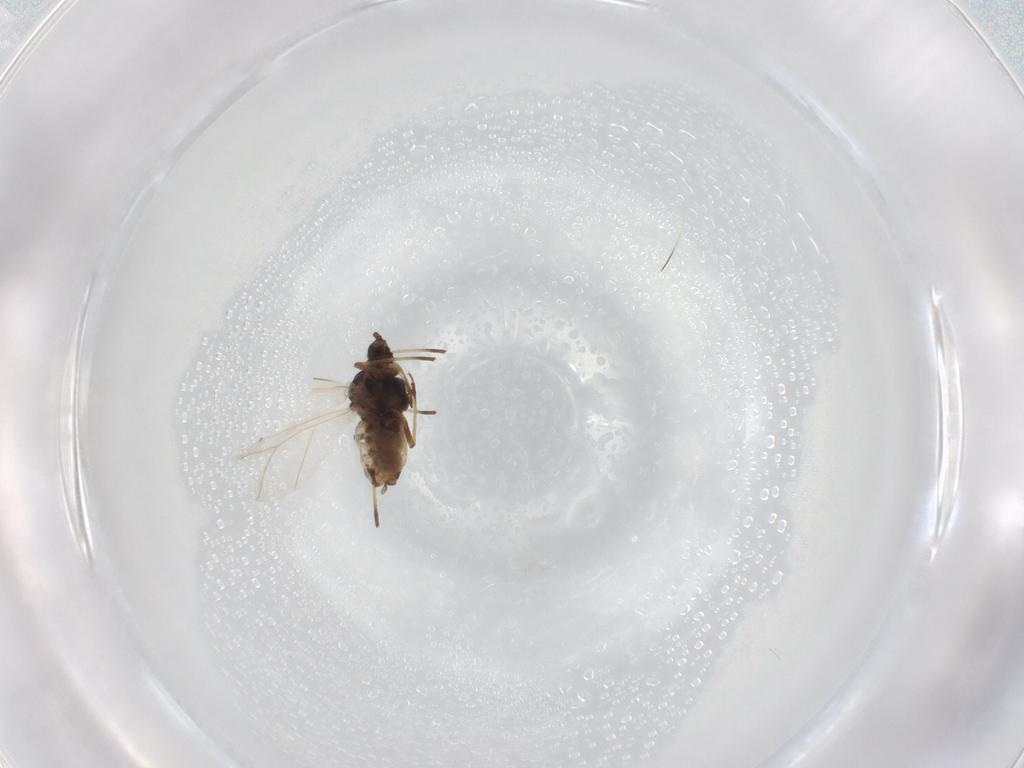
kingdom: Animalia
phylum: Arthropoda
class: Insecta
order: Hemiptera
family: Aphididae
